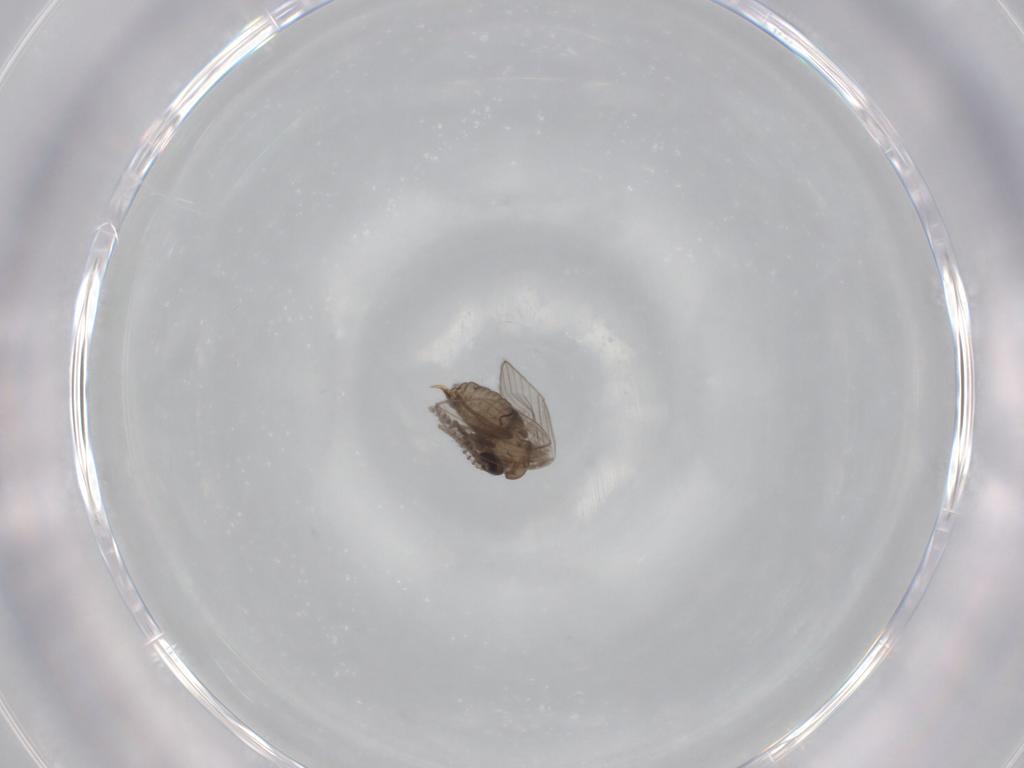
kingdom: Animalia
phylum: Arthropoda
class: Insecta
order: Diptera
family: Psychodidae
